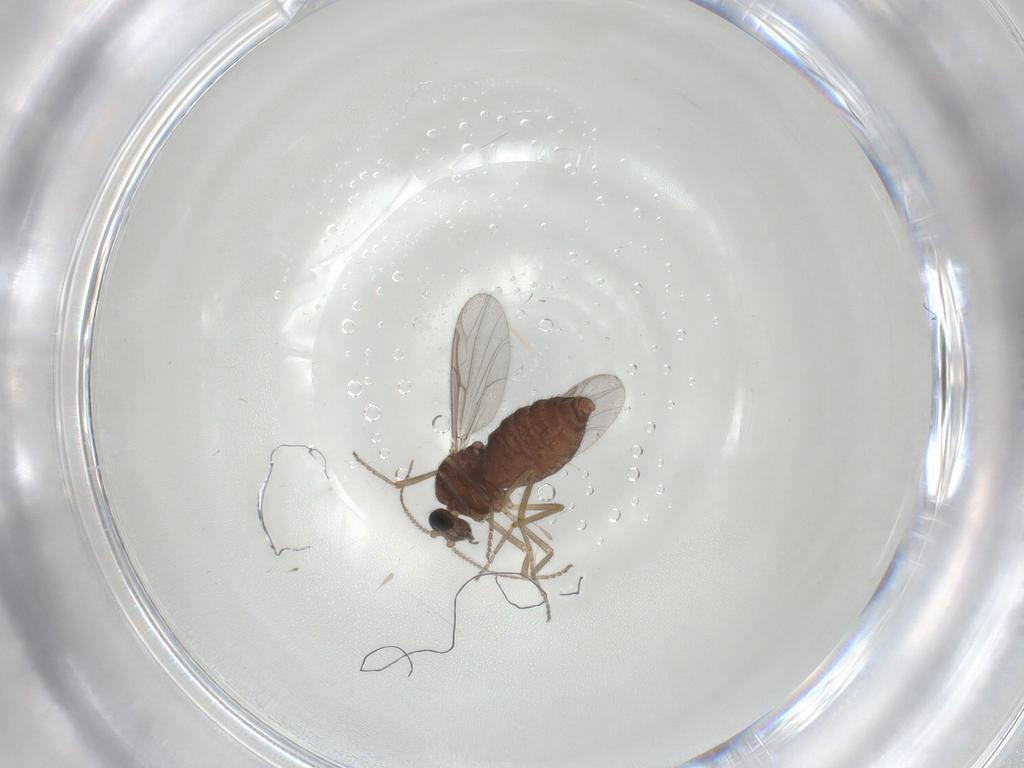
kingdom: Animalia
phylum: Arthropoda
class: Insecta
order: Diptera
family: Ceratopogonidae
